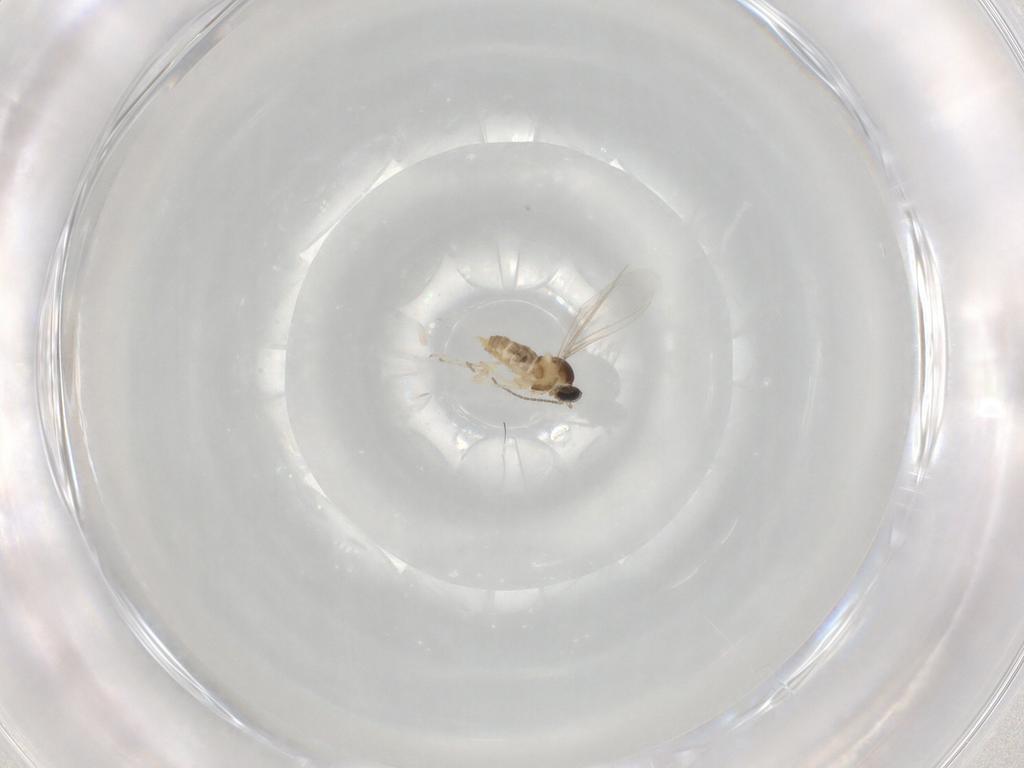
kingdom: Animalia
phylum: Arthropoda
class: Insecta
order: Diptera
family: Cecidomyiidae
